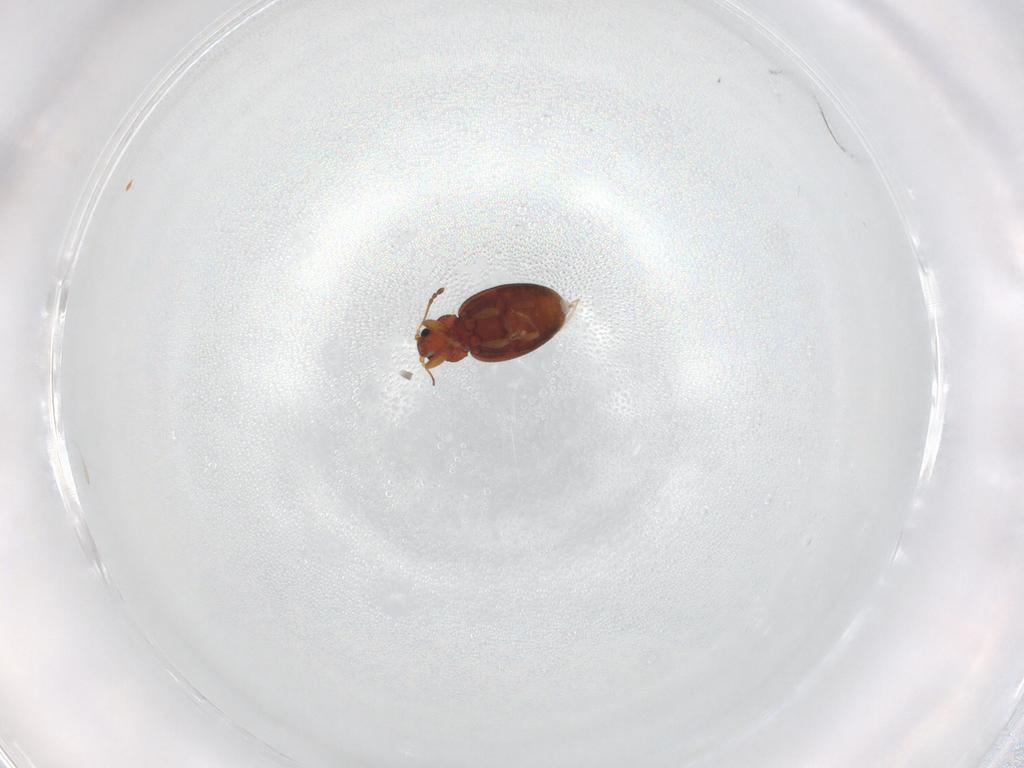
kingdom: Animalia
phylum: Arthropoda
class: Insecta
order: Coleoptera
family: Latridiidae
